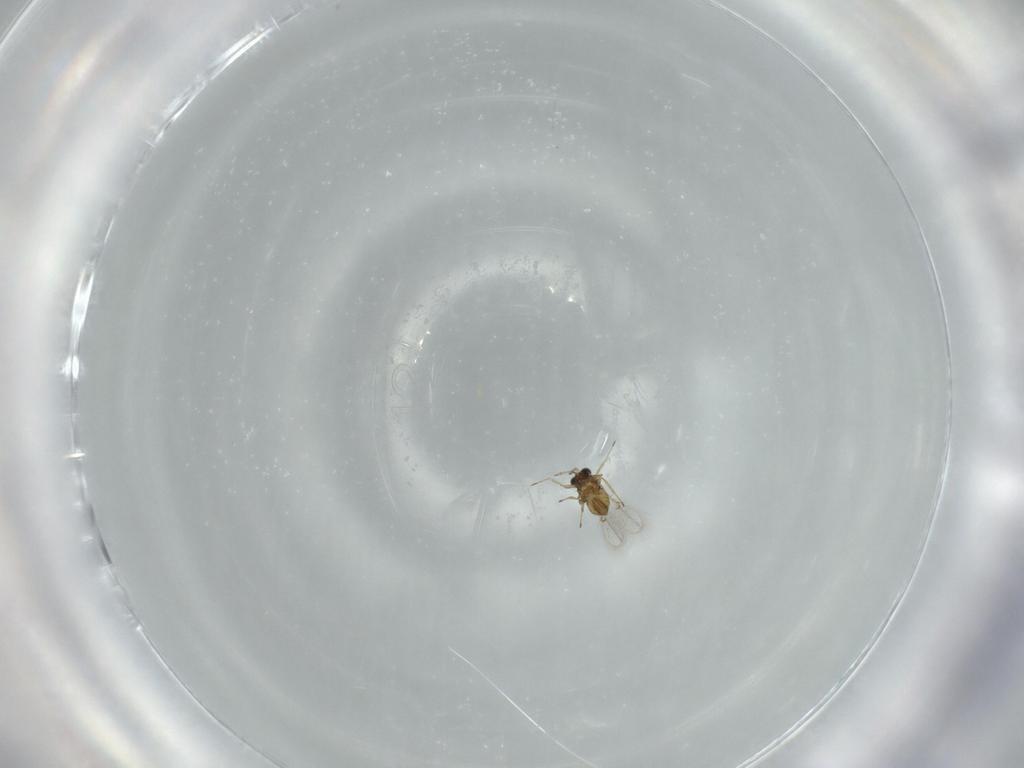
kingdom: Animalia
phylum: Arthropoda
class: Insecta
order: Hymenoptera
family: Trichogrammatidae
